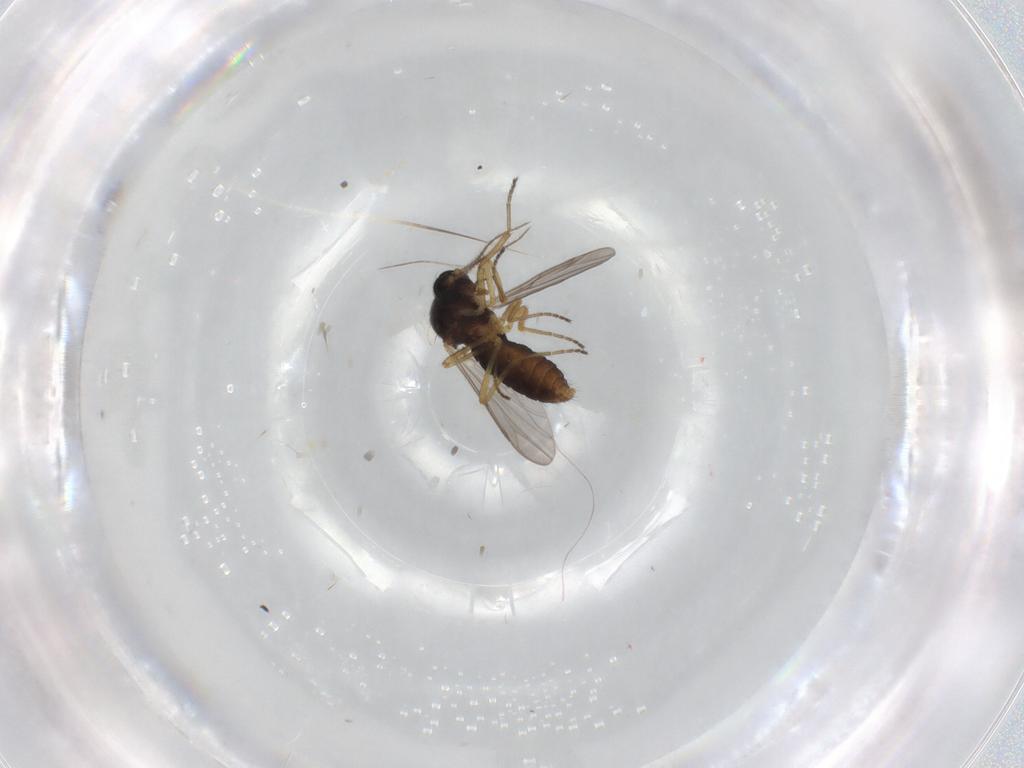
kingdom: Animalia
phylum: Arthropoda
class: Insecta
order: Diptera
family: Ceratopogonidae
